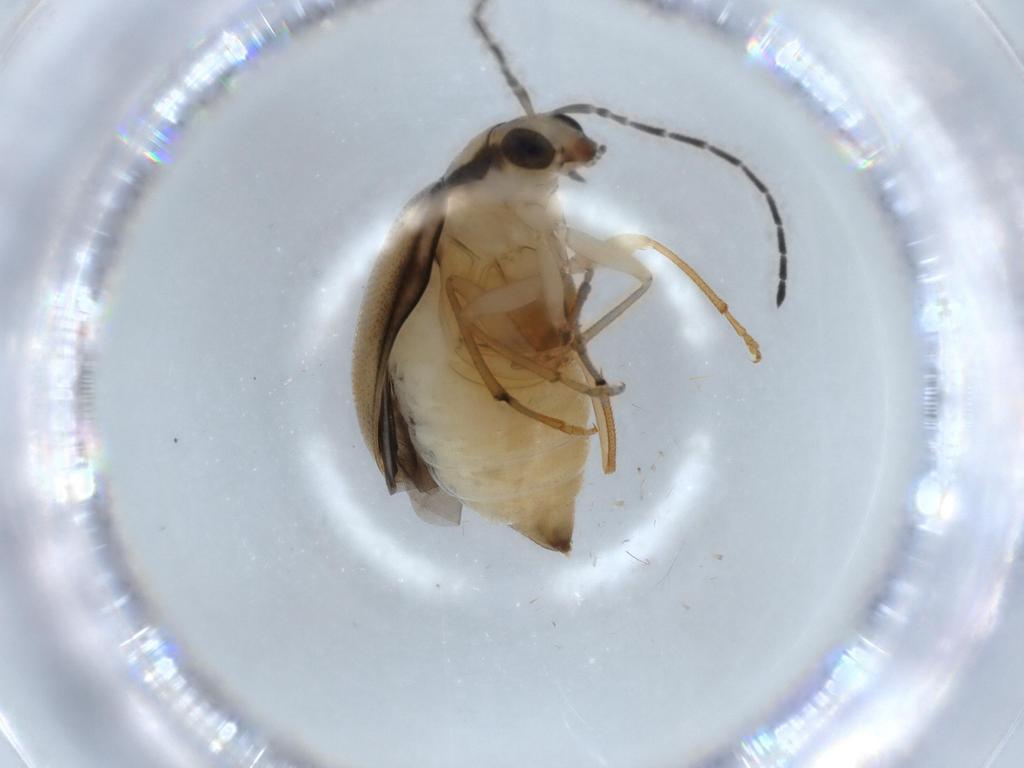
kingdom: Animalia
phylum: Arthropoda
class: Insecta
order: Coleoptera
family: Chrysomelidae
